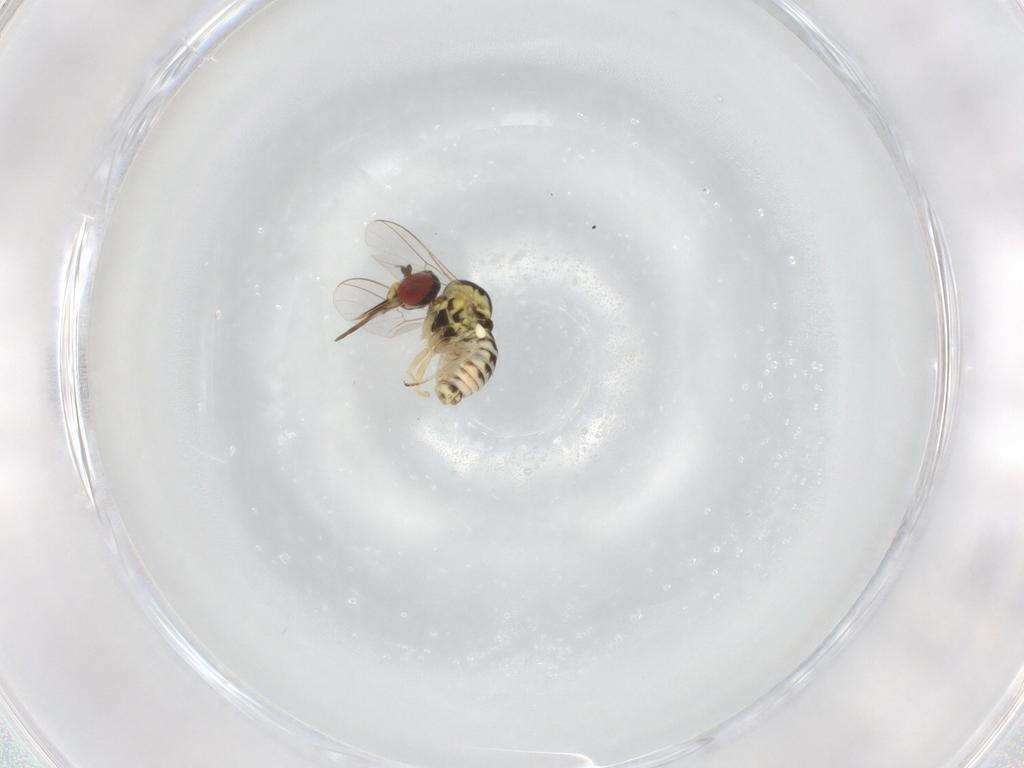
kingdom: Animalia
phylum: Arthropoda
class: Insecta
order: Diptera
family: Bombyliidae
